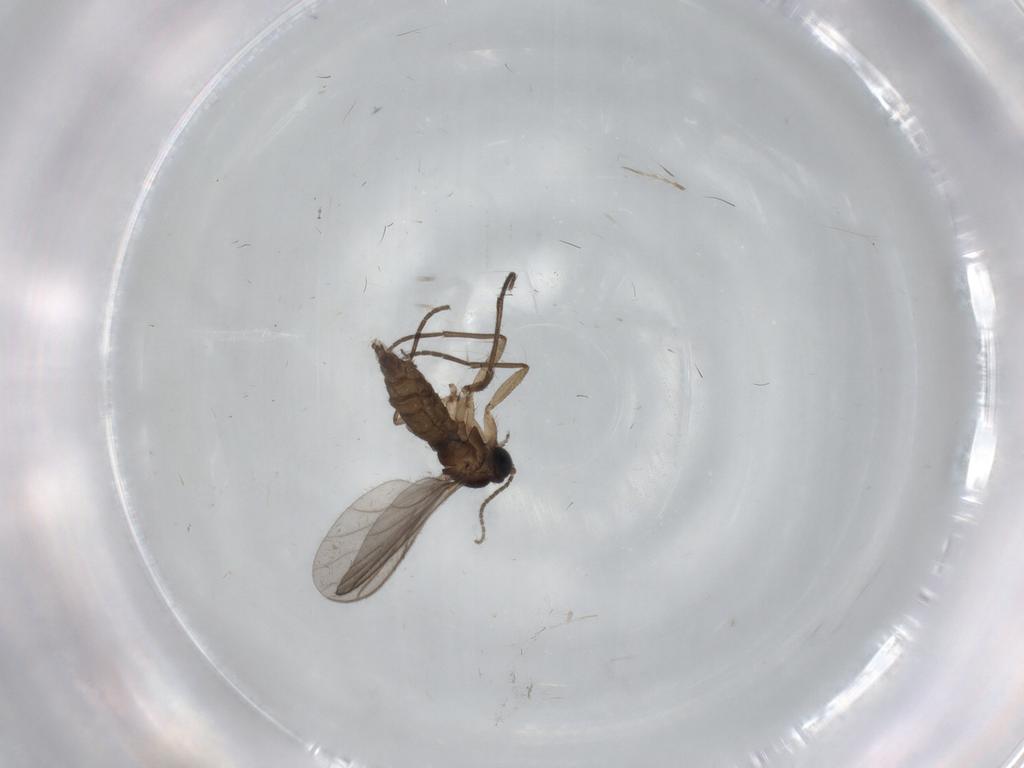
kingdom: Animalia
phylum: Arthropoda
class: Insecta
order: Diptera
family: Sciaridae
